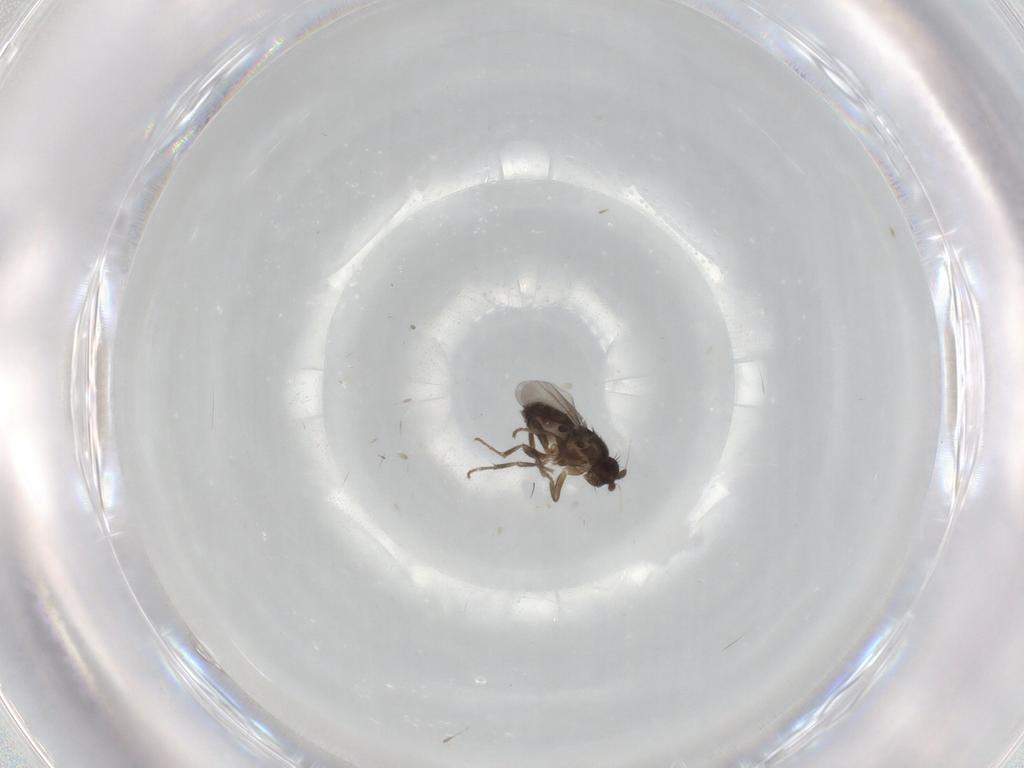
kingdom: Animalia
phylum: Arthropoda
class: Insecta
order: Diptera
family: Sphaeroceridae
